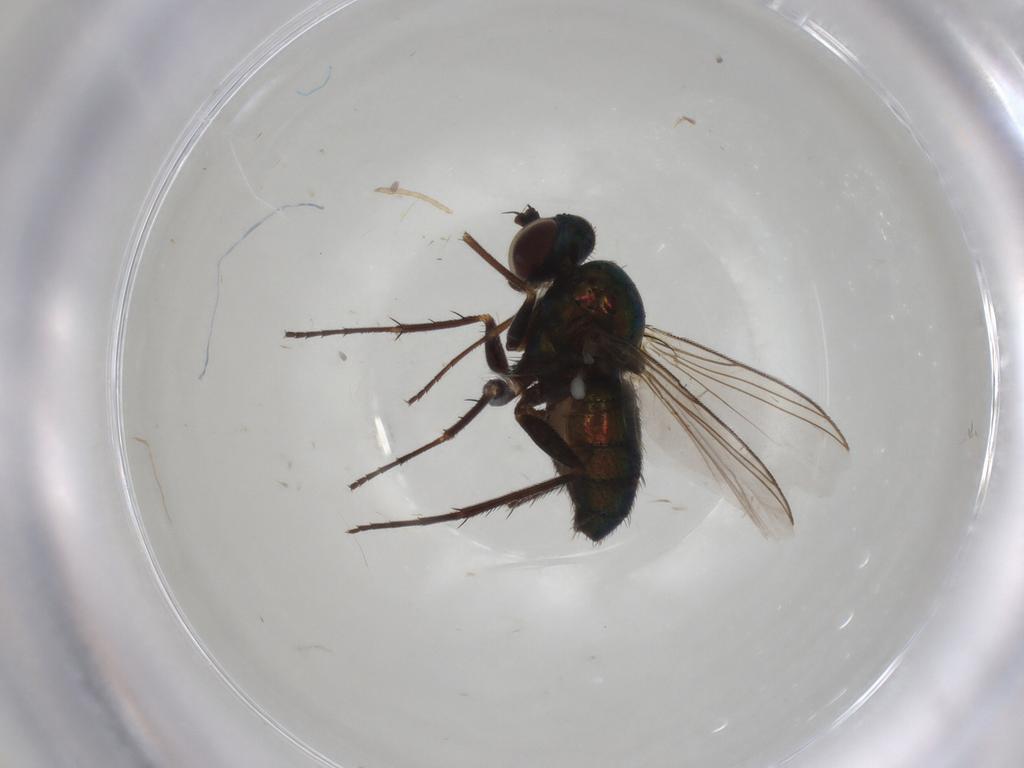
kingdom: Animalia
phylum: Arthropoda
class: Insecta
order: Diptera
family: Dolichopodidae
